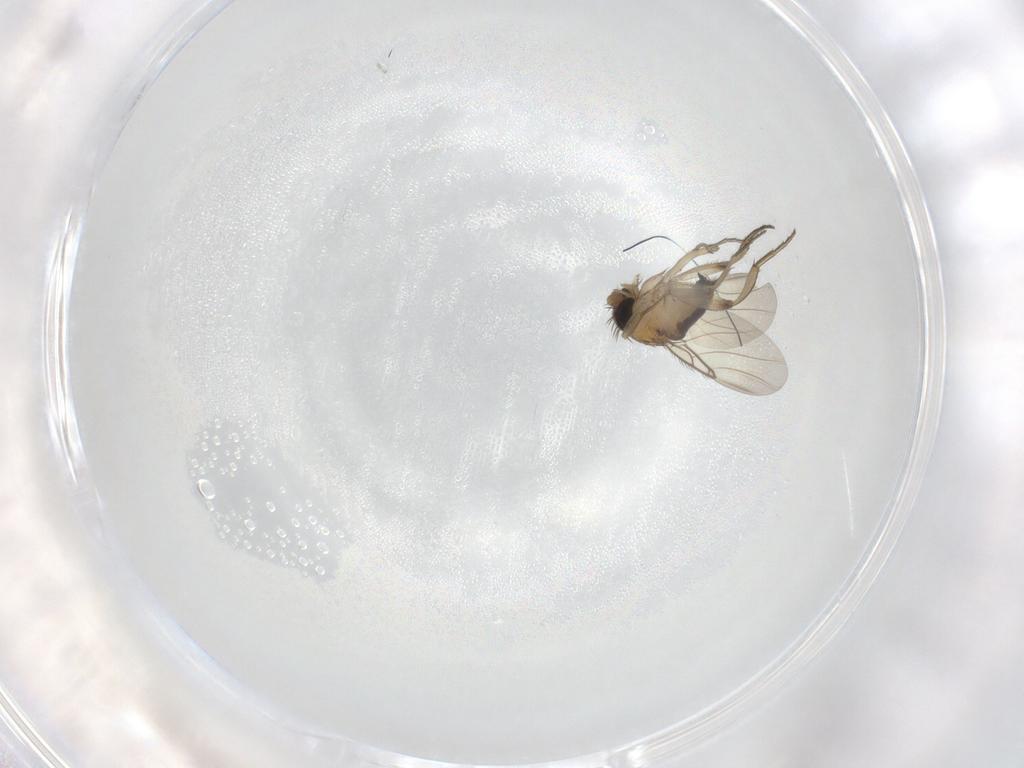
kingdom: Animalia
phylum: Arthropoda
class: Insecta
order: Diptera
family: Phoridae
